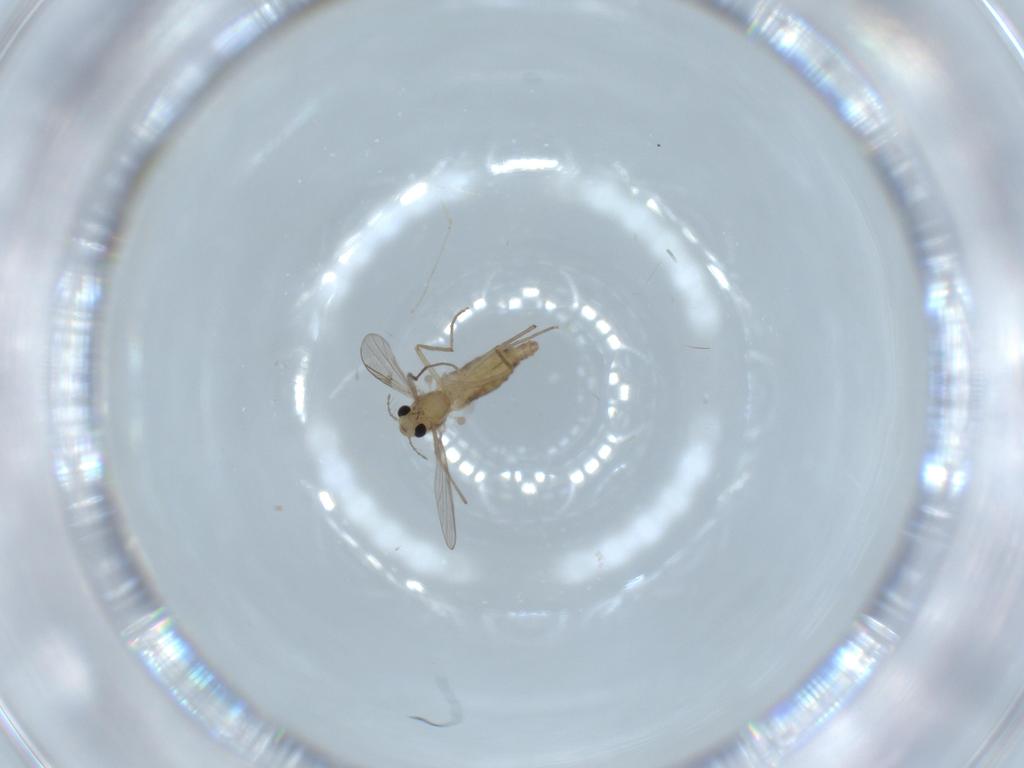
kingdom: Animalia
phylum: Arthropoda
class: Insecta
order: Diptera
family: Chironomidae
